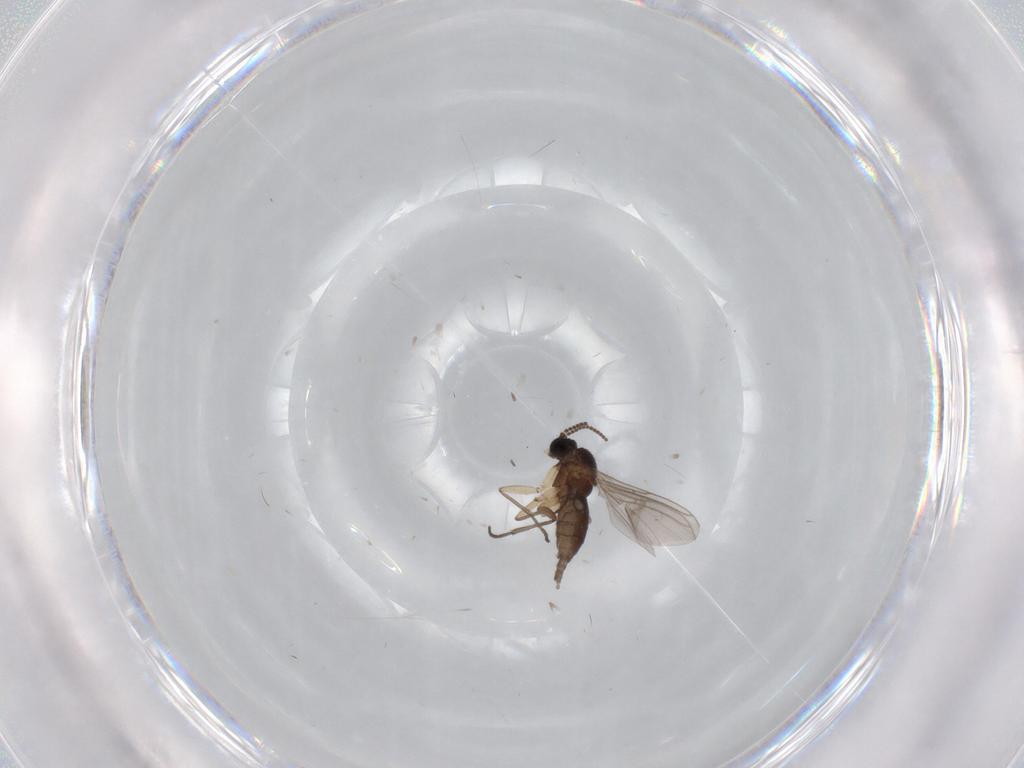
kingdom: Animalia
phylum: Arthropoda
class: Insecta
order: Diptera
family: Sciaridae
